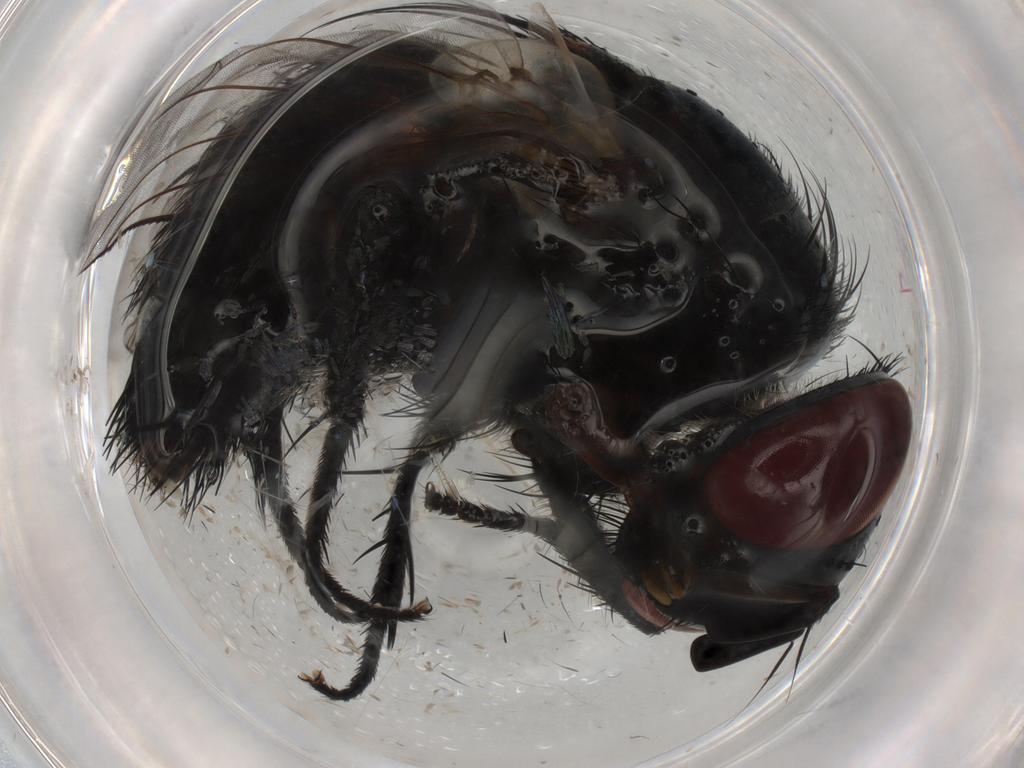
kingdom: Animalia
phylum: Arthropoda
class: Insecta
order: Diptera
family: Tachinidae
